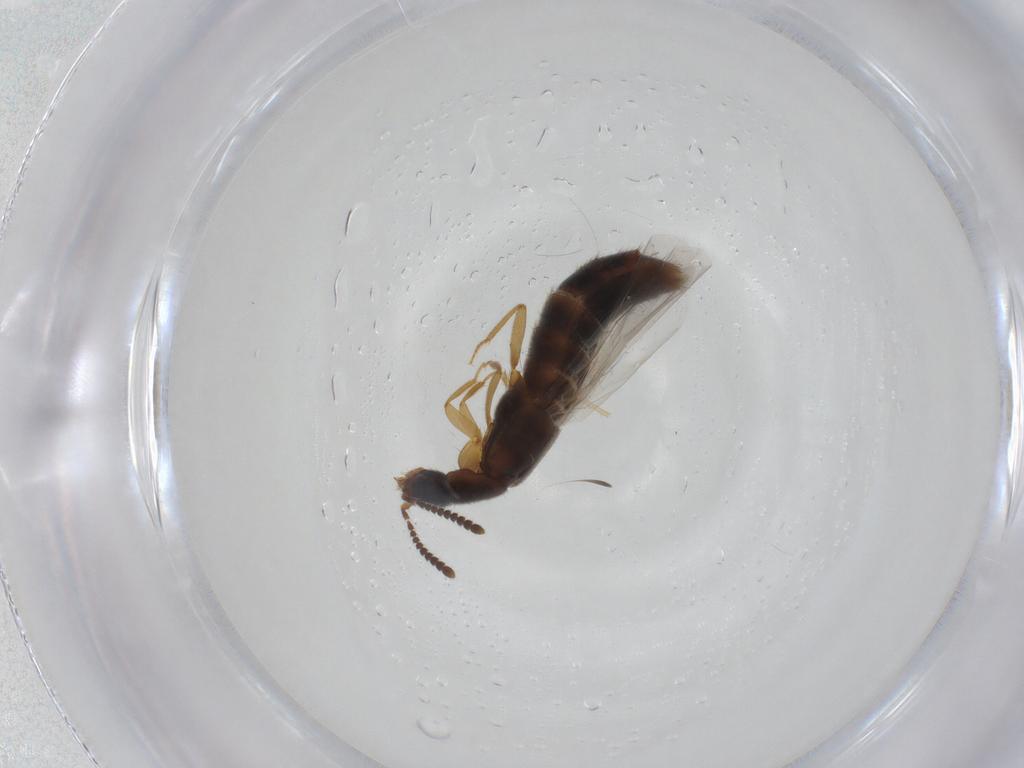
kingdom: Animalia
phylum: Arthropoda
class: Insecta
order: Coleoptera
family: Staphylinidae
